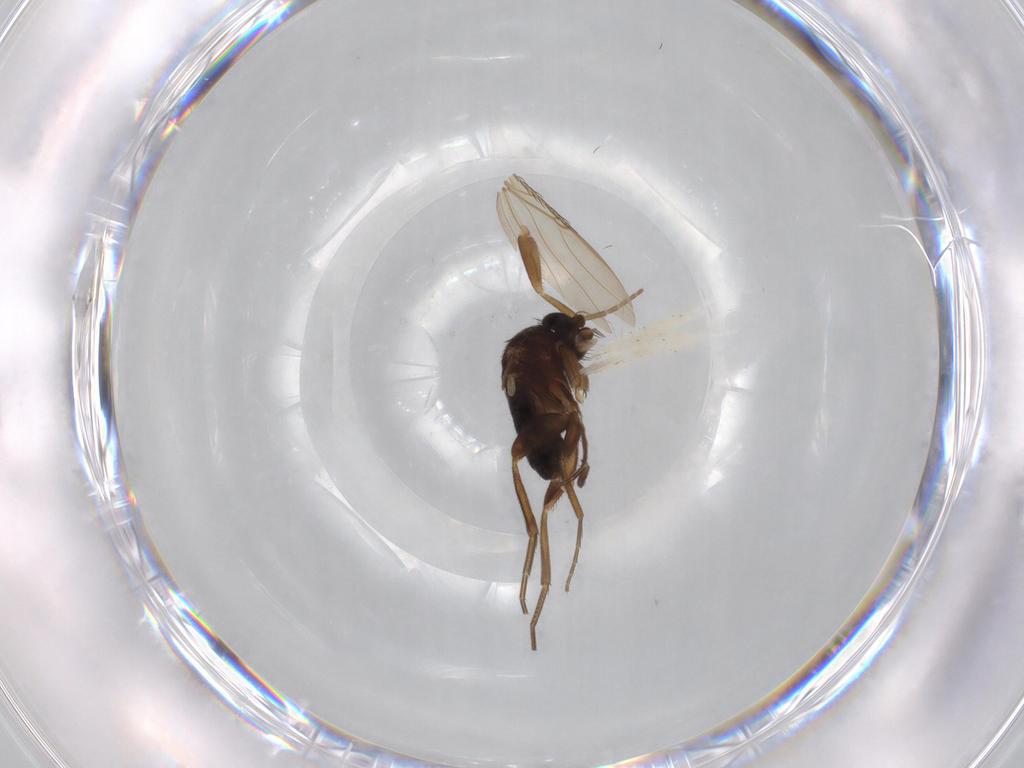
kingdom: Animalia
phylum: Arthropoda
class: Insecta
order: Diptera
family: Phoridae
